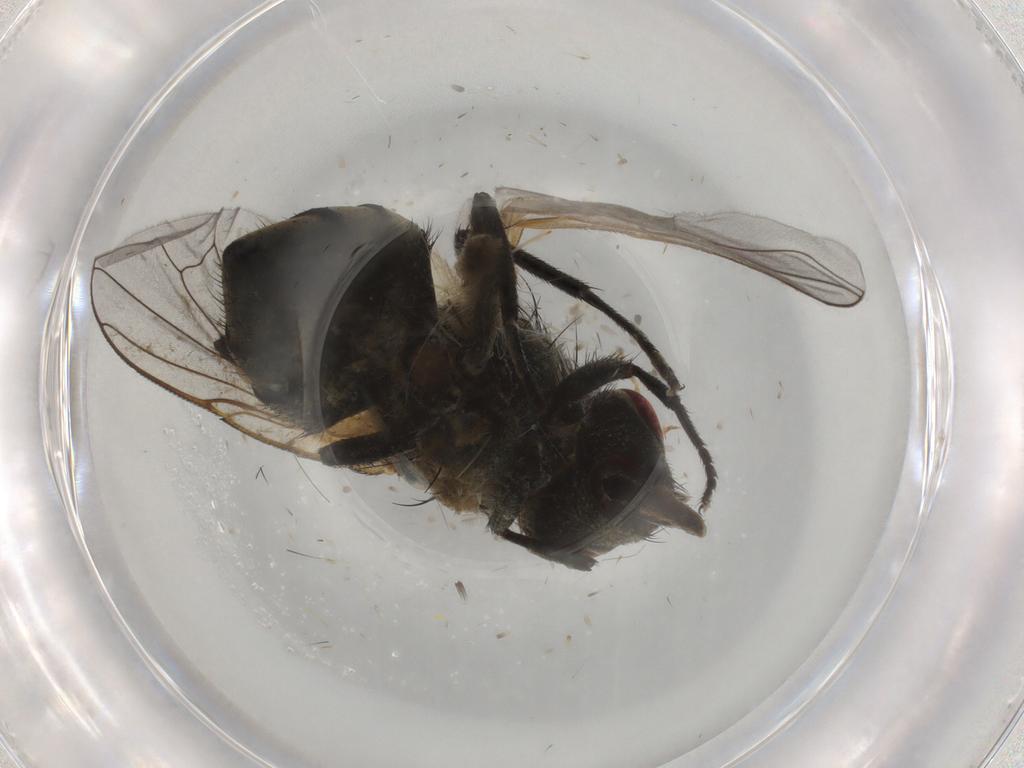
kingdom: Animalia
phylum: Arthropoda
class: Insecta
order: Diptera
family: Muscidae
